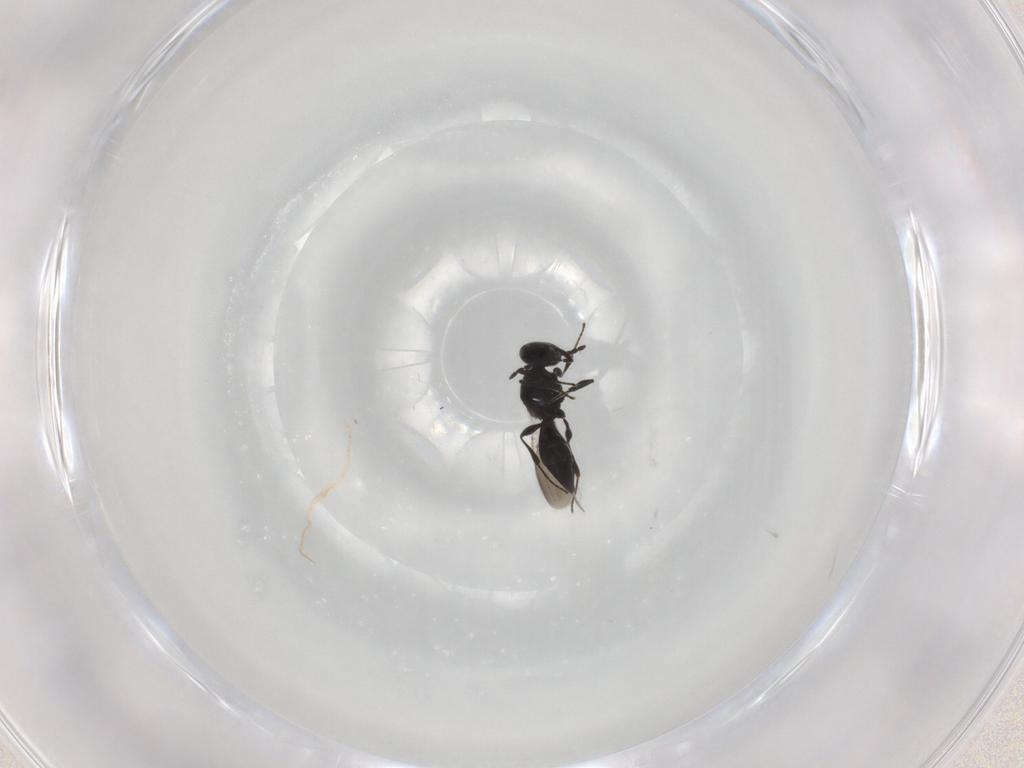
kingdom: Animalia
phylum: Arthropoda
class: Insecta
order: Hymenoptera
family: Platygastridae
